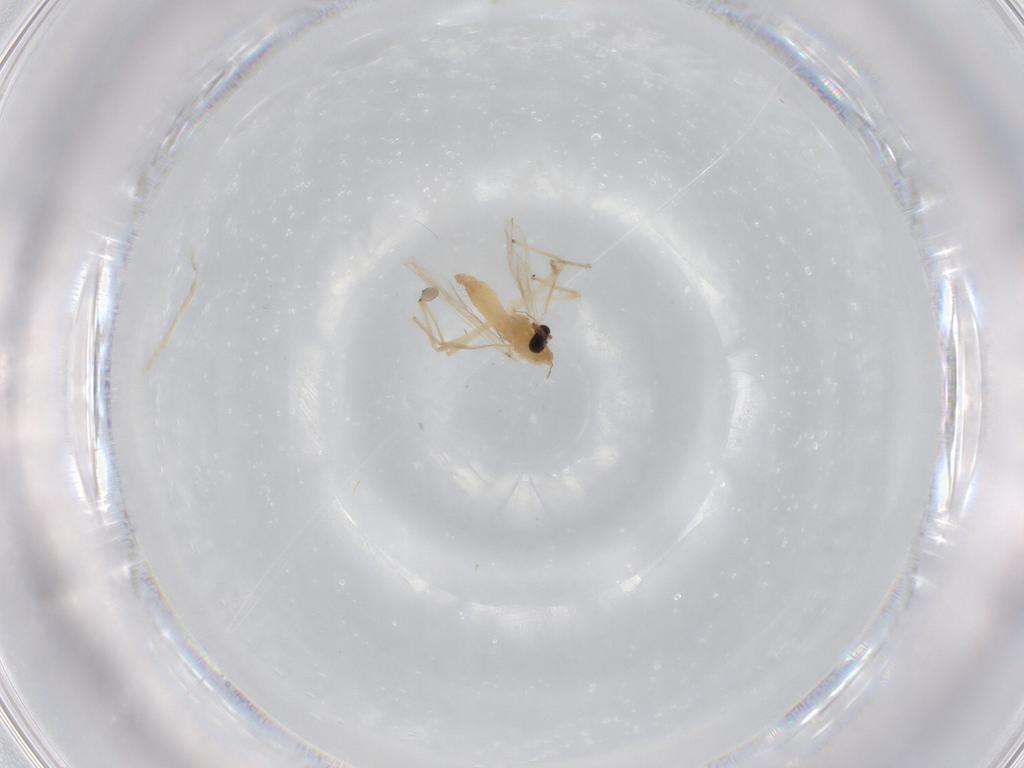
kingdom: Animalia
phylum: Arthropoda
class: Insecta
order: Diptera
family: Chironomidae
